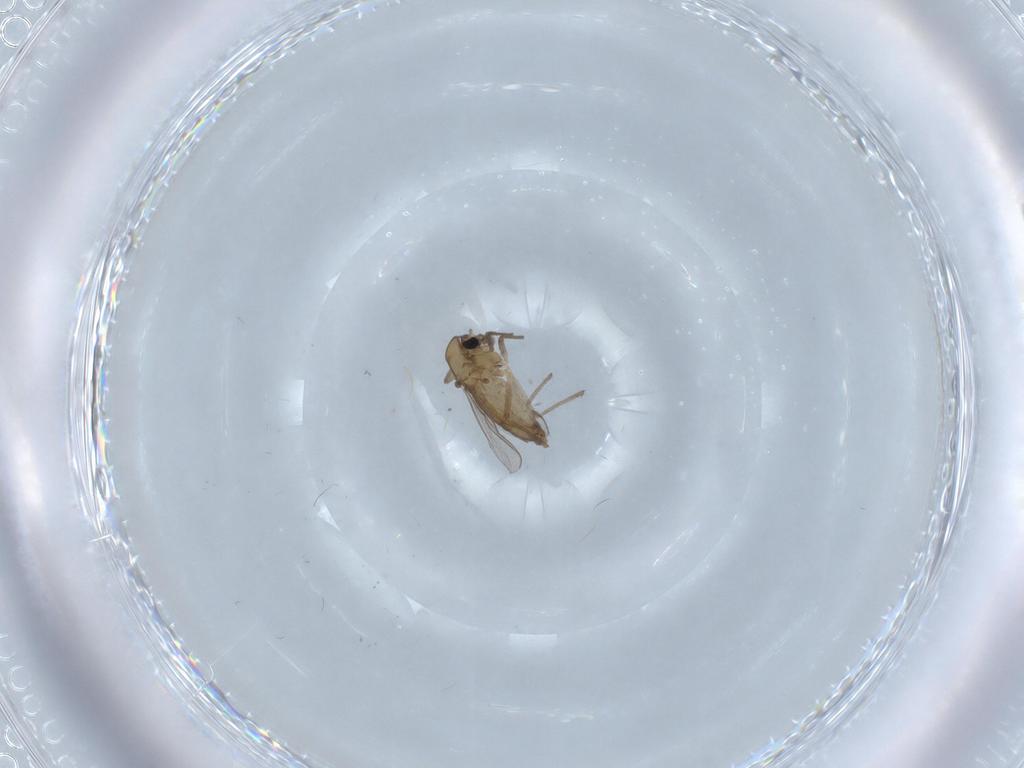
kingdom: Animalia
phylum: Arthropoda
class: Insecta
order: Diptera
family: Chironomidae
